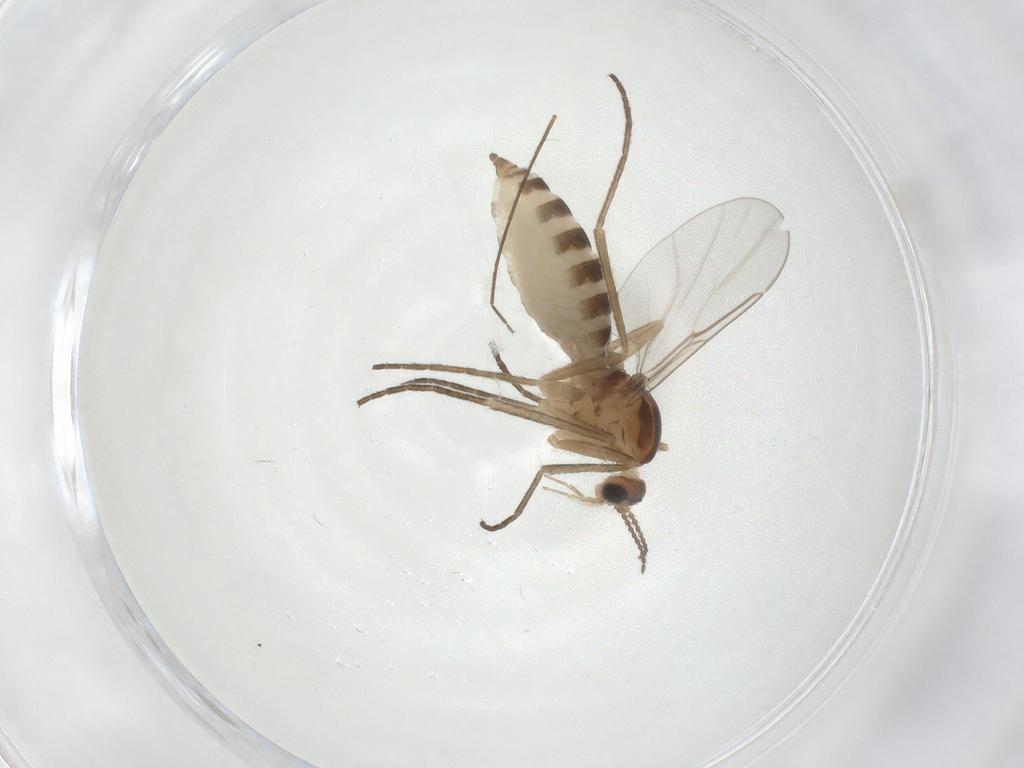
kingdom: Animalia
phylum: Arthropoda
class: Insecta
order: Diptera
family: Cecidomyiidae
